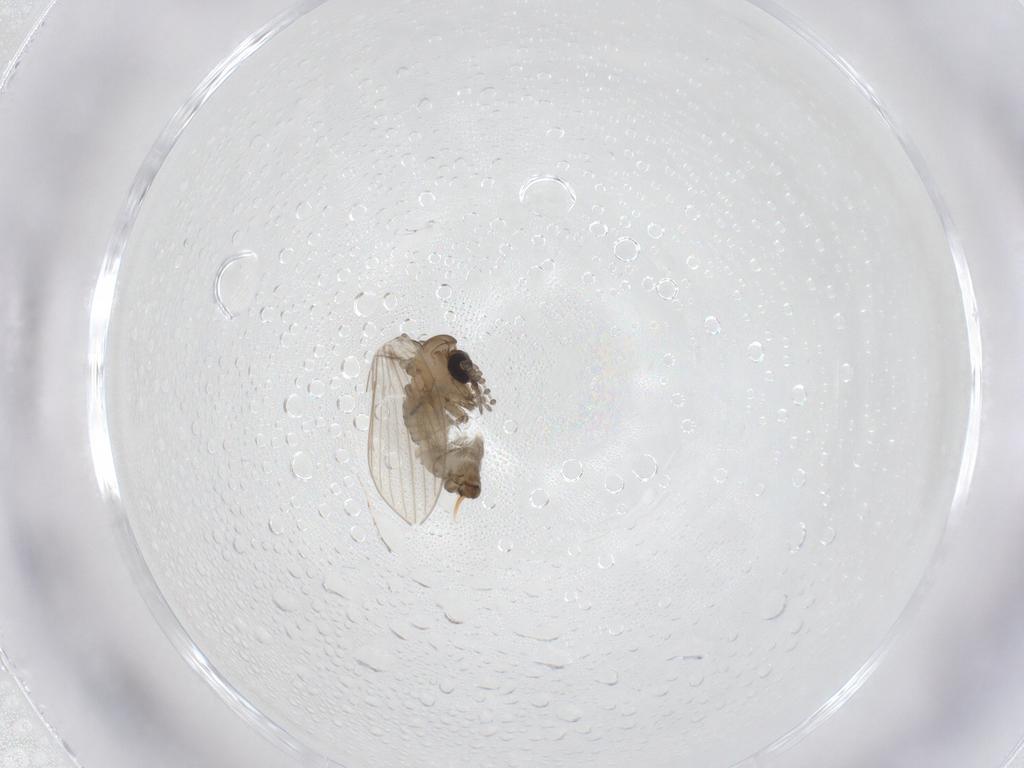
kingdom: Animalia
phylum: Arthropoda
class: Insecta
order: Diptera
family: Psychodidae
